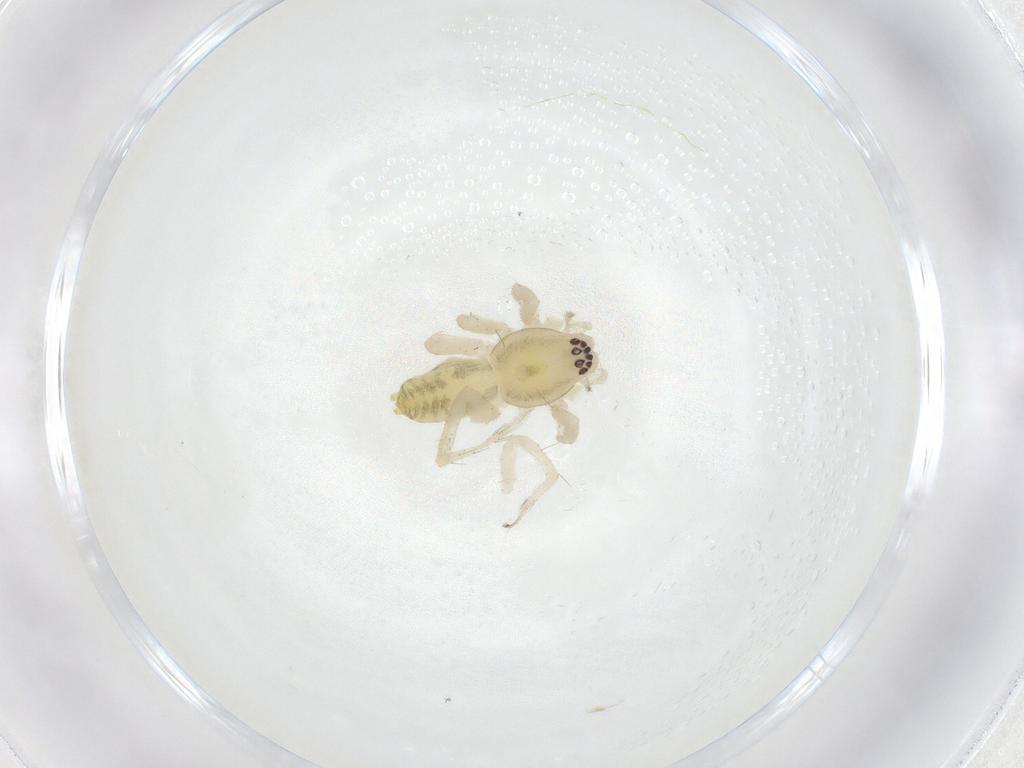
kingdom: Animalia
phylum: Arthropoda
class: Arachnida
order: Araneae
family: Anyphaenidae
